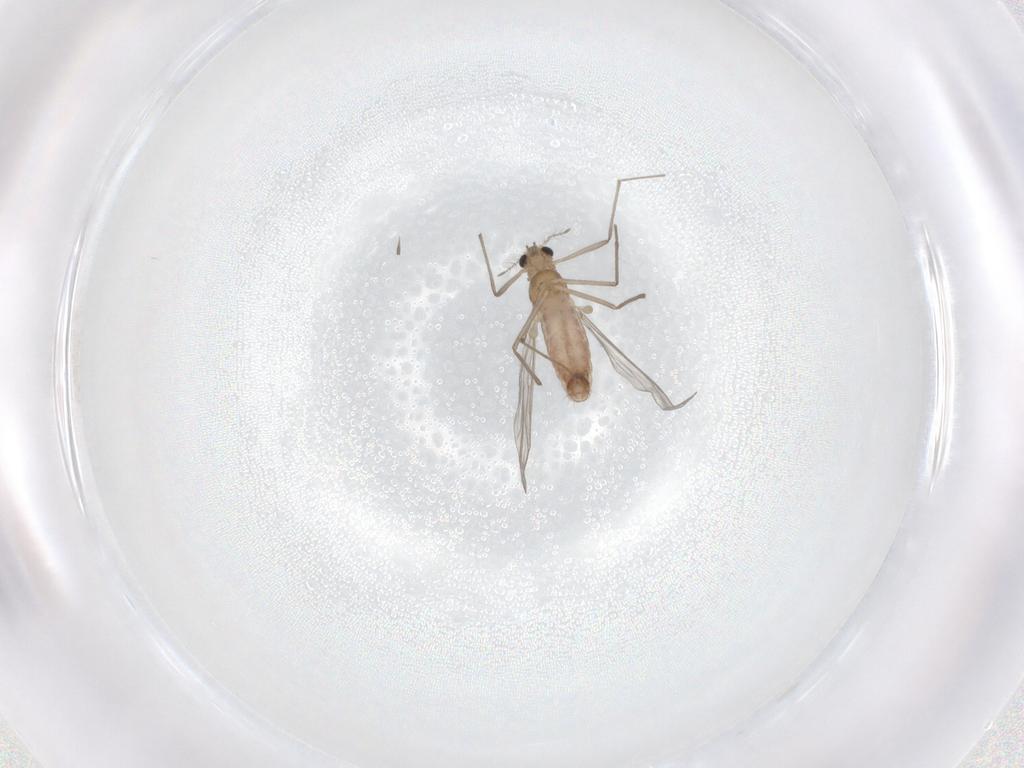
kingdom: Animalia
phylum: Arthropoda
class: Insecta
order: Diptera
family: Chironomidae
